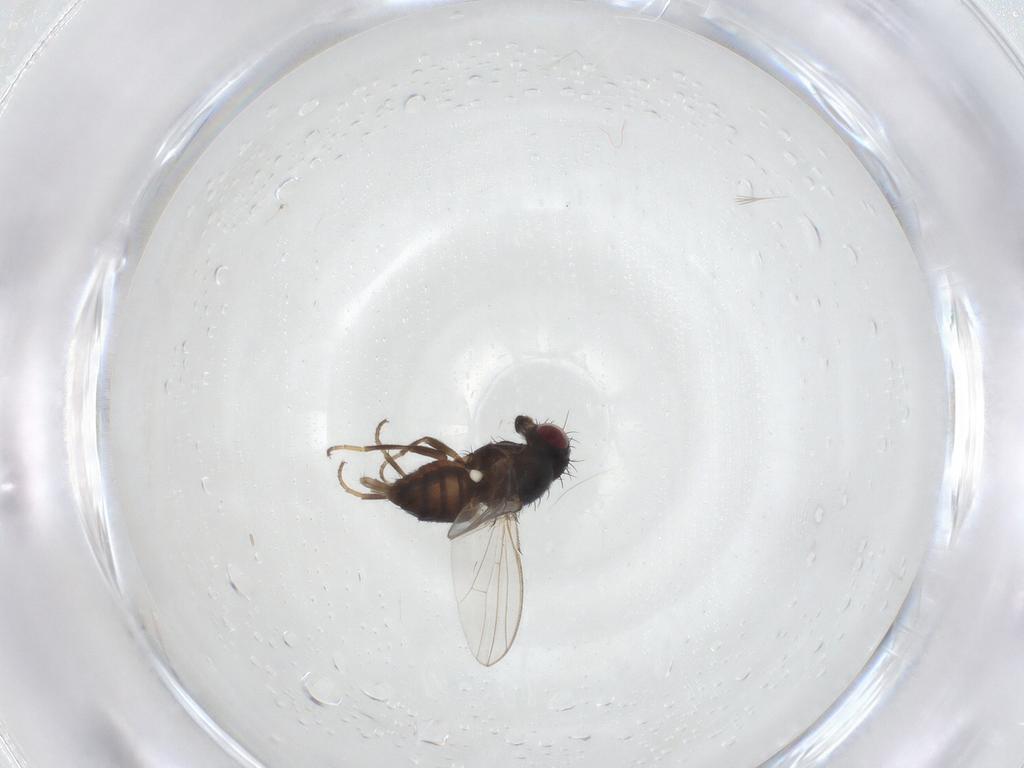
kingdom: Animalia
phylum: Arthropoda
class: Insecta
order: Diptera
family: Carnidae
